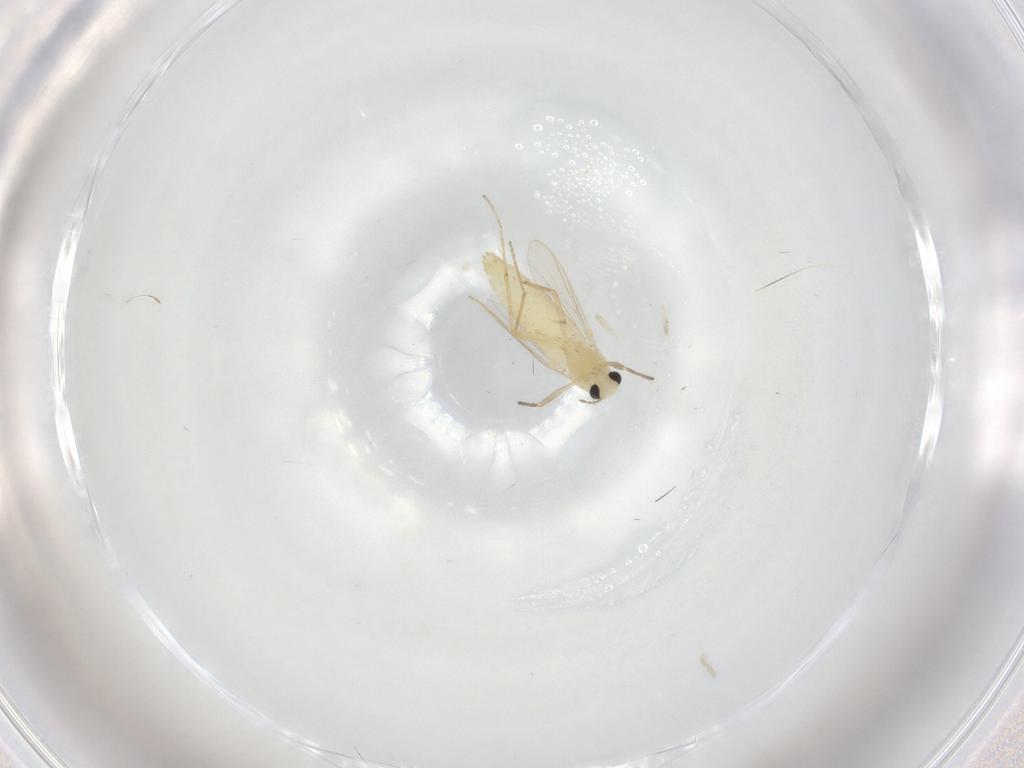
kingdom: Animalia
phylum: Arthropoda
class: Insecta
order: Diptera
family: Chironomidae
